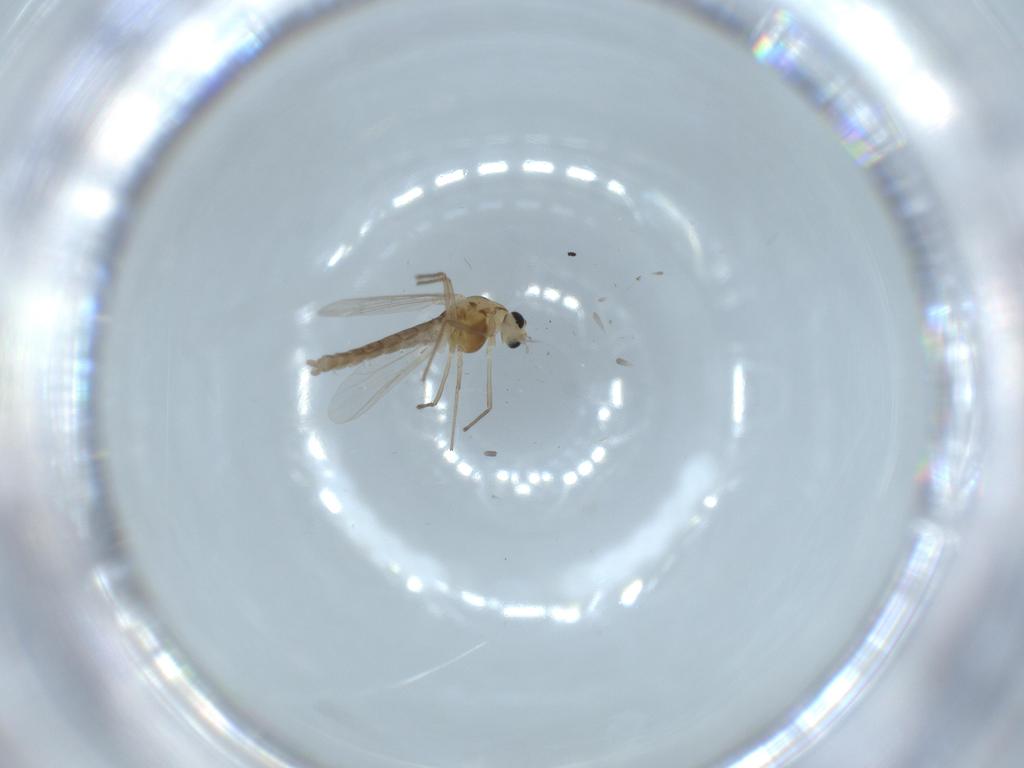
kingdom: Animalia
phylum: Arthropoda
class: Insecta
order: Diptera
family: Chironomidae
